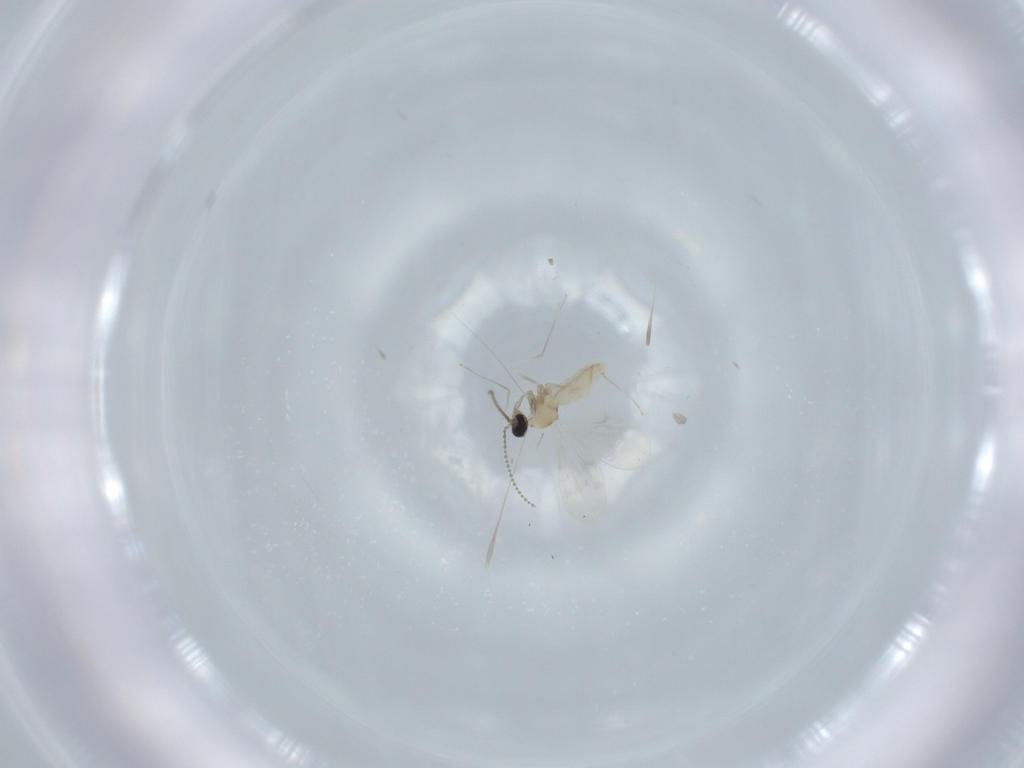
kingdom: Animalia
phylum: Arthropoda
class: Insecta
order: Diptera
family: Cecidomyiidae
